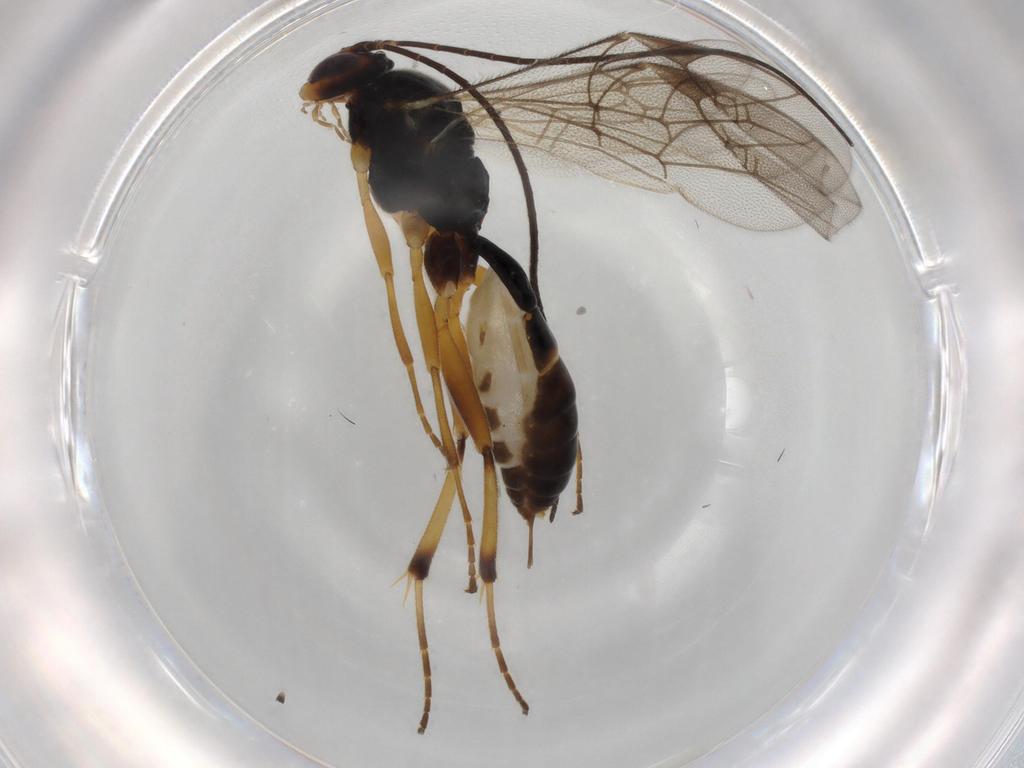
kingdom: Animalia
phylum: Arthropoda
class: Insecta
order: Hymenoptera
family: Ichneumonidae
